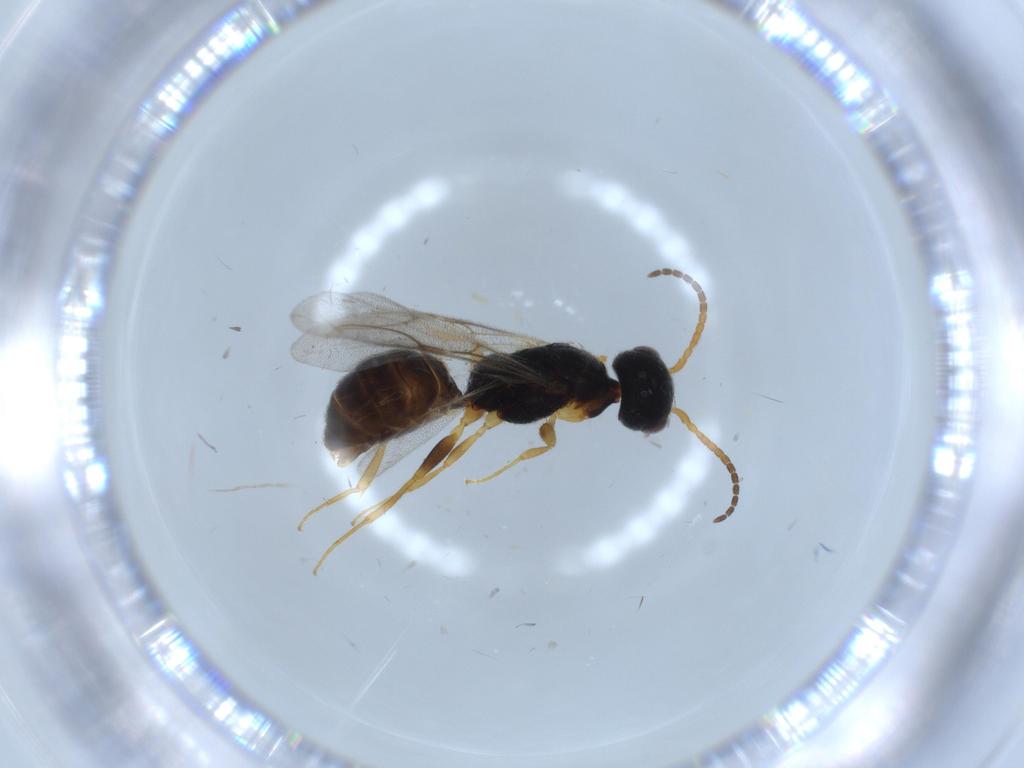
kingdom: Animalia
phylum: Arthropoda
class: Insecta
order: Hymenoptera
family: Bethylidae
